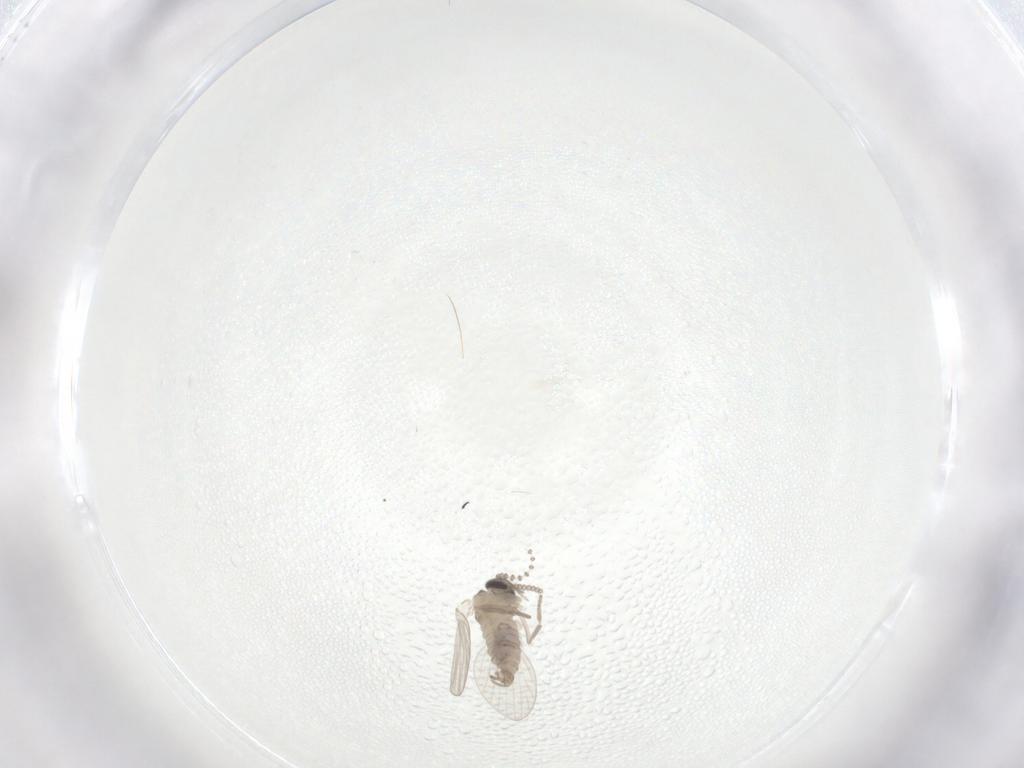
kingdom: Animalia
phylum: Arthropoda
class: Insecta
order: Diptera
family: Psychodidae
